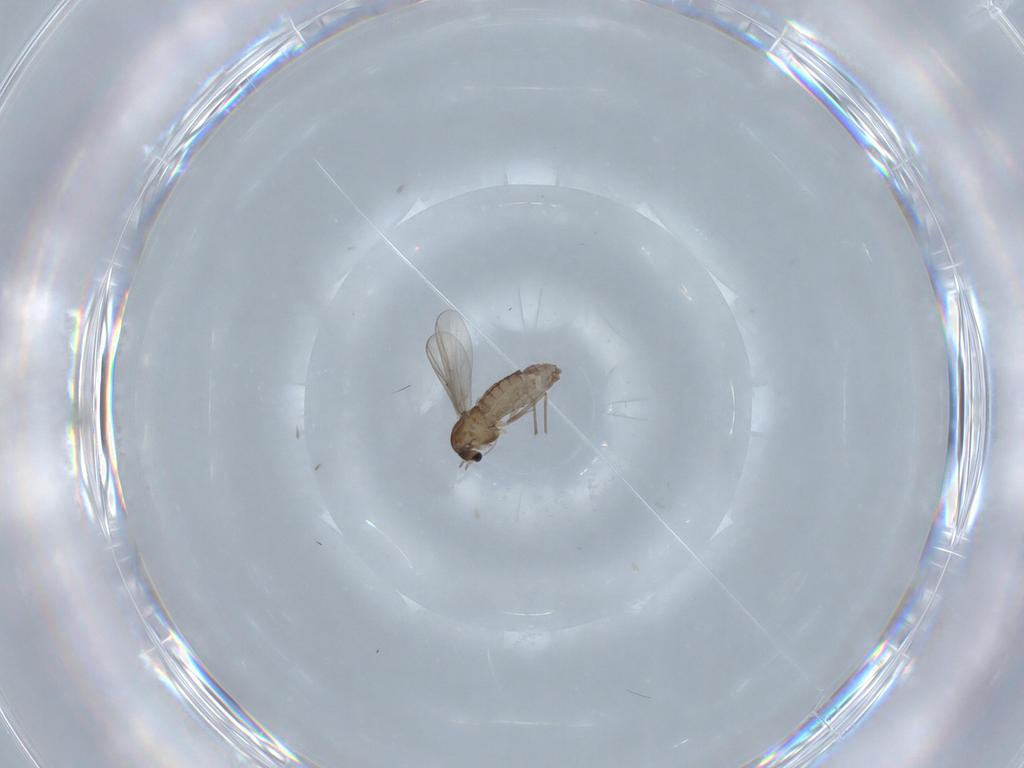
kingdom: Animalia
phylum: Arthropoda
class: Insecta
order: Diptera
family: Chironomidae
